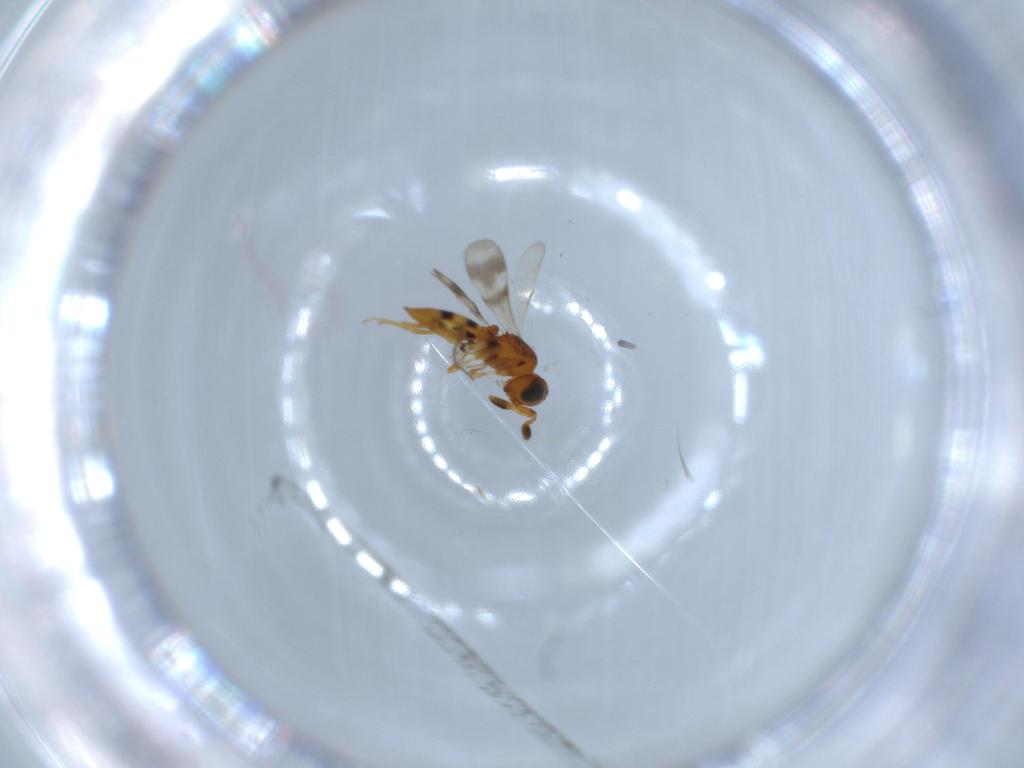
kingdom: Animalia
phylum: Arthropoda
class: Insecta
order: Hymenoptera
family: Scelionidae
